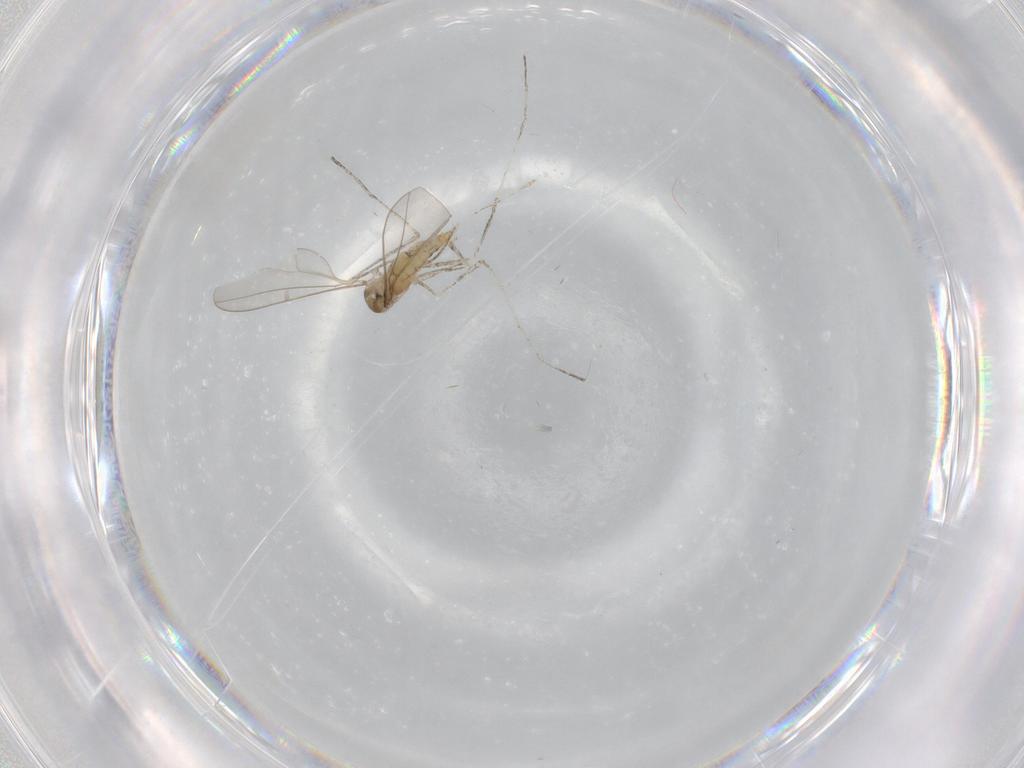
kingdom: Animalia
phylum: Arthropoda
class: Insecta
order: Diptera
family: Cecidomyiidae
